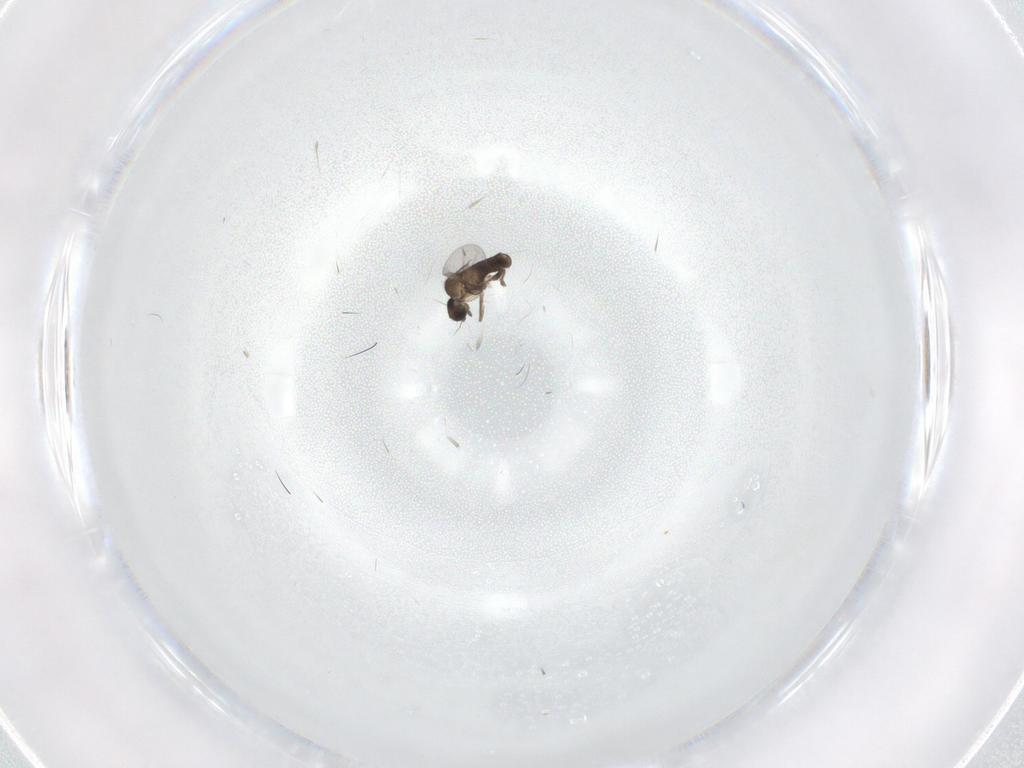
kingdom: Animalia
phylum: Arthropoda
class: Insecta
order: Diptera
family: Cecidomyiidae
